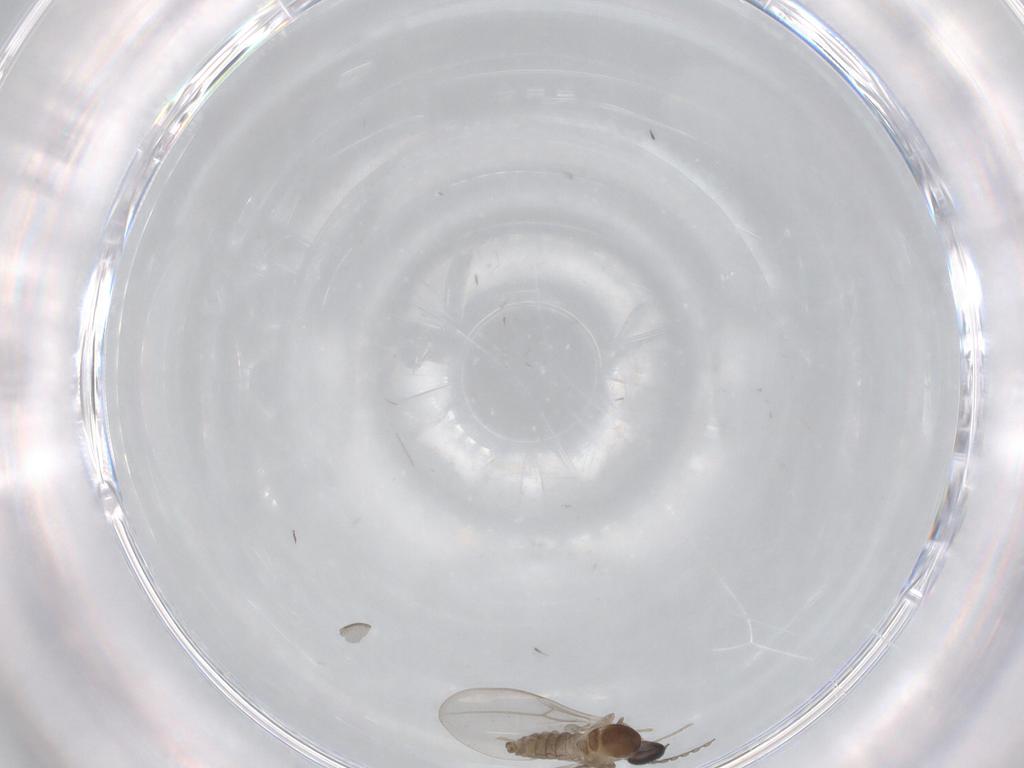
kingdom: Animalia
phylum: Arthropoda
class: Insecta
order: Diptera
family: Cecidomyiidae
